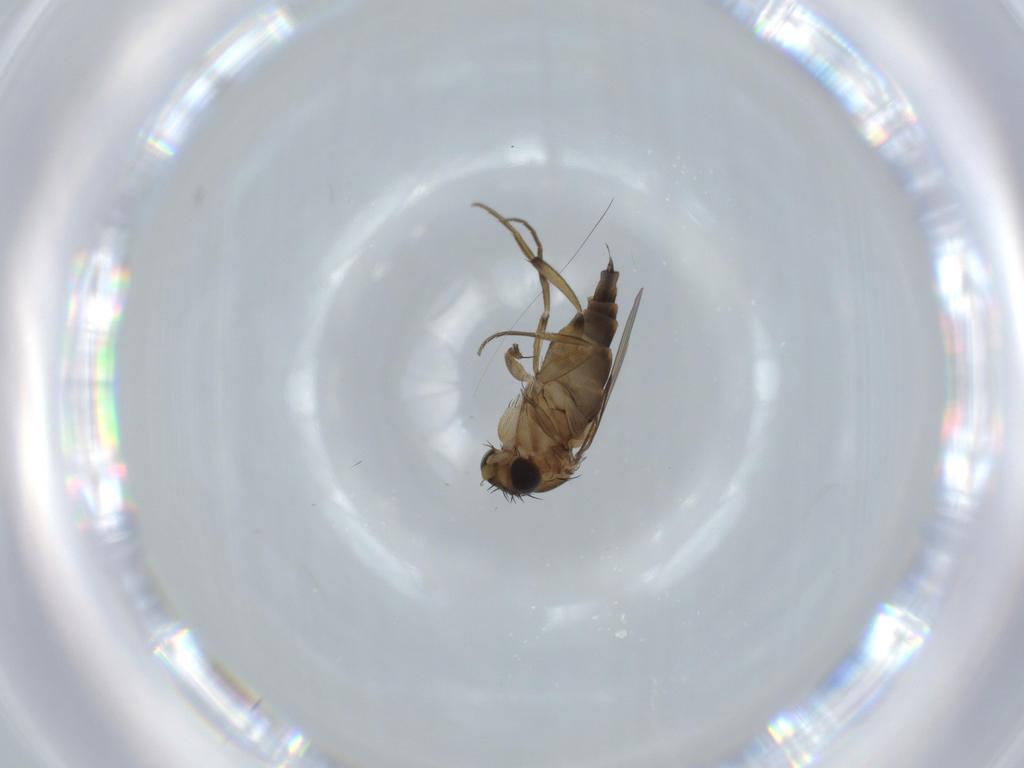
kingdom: Animalia
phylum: Arthropoda
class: Insecta
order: Diptera
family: Phoridae
